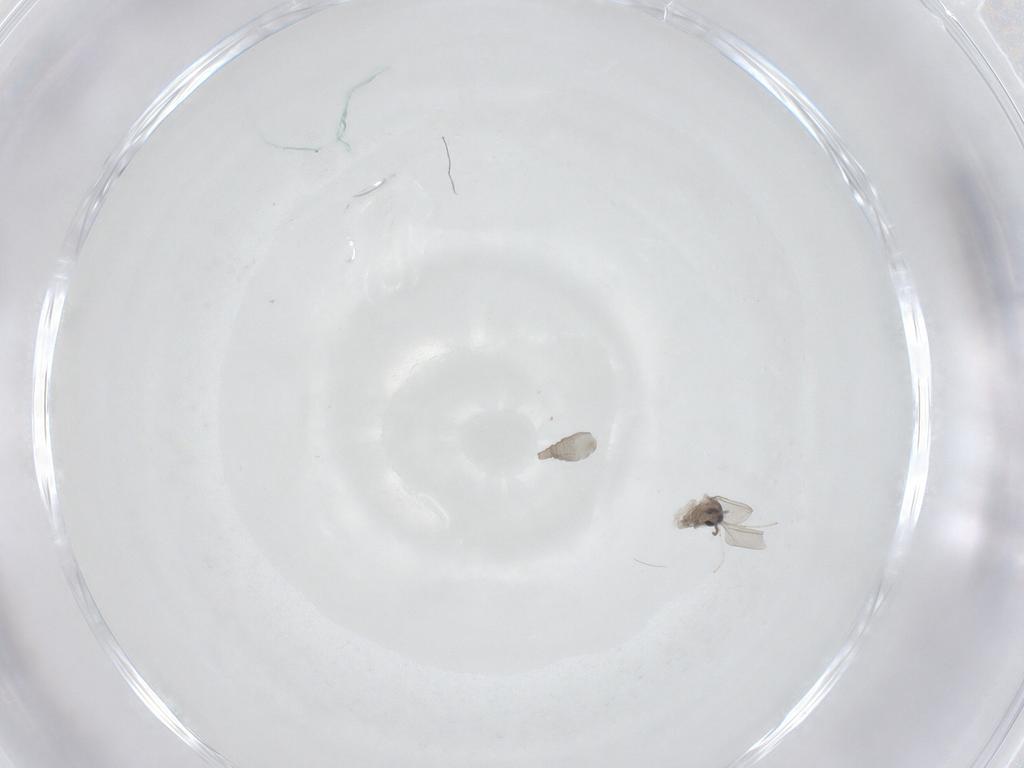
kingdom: Animalia
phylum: Arthropoda
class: Insecta
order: Diptera
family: Cecidomyiidae
